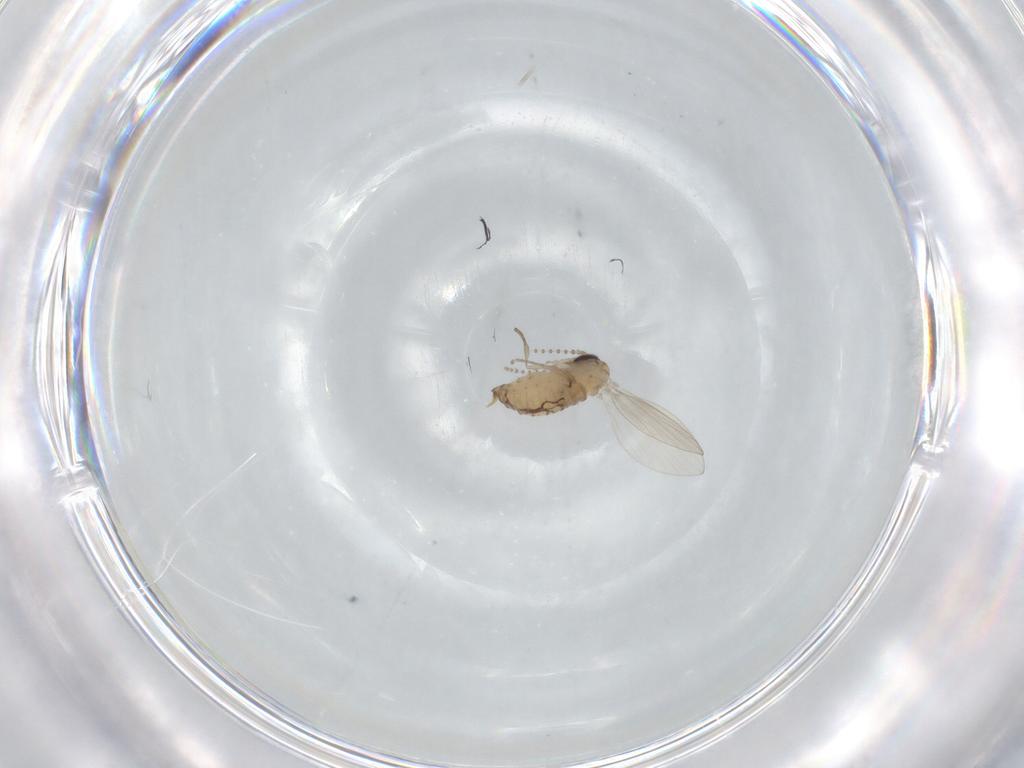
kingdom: Animalia
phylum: Arthropoda
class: Insecta
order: Diptera
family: Psychodidae
